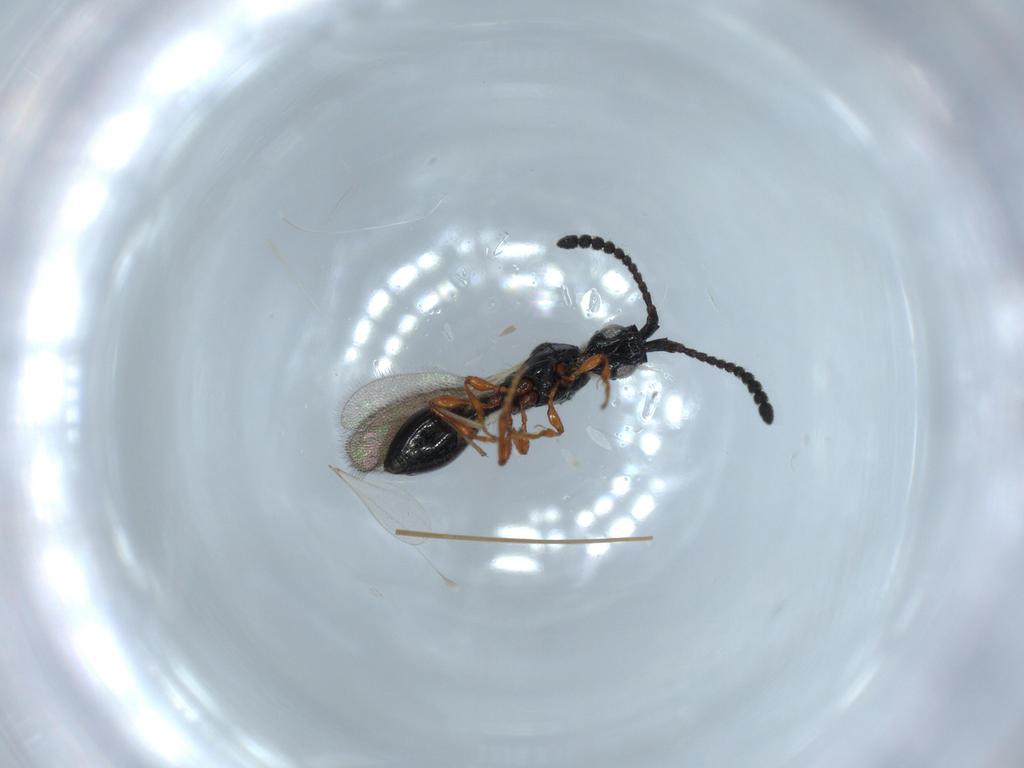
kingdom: Animalia
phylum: Arthropoda
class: Insecta
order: Hymenoptera
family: Diapriidae
